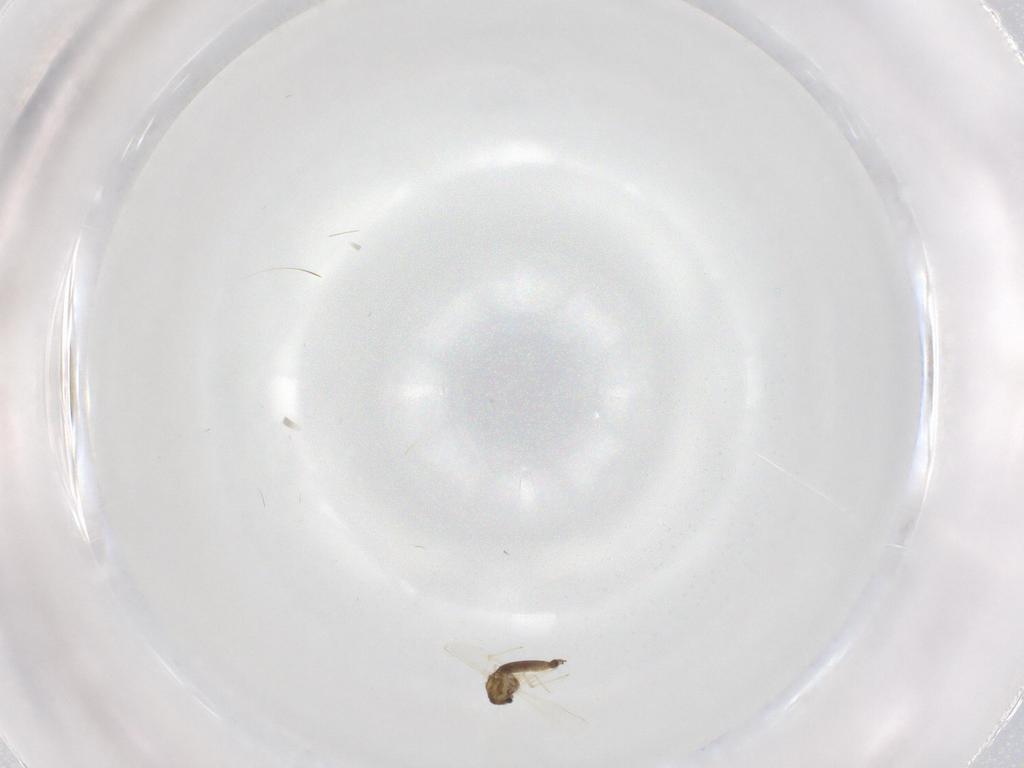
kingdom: Animalia
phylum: Arthropoda
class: Insecta
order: Diptera
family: Chironomidae
